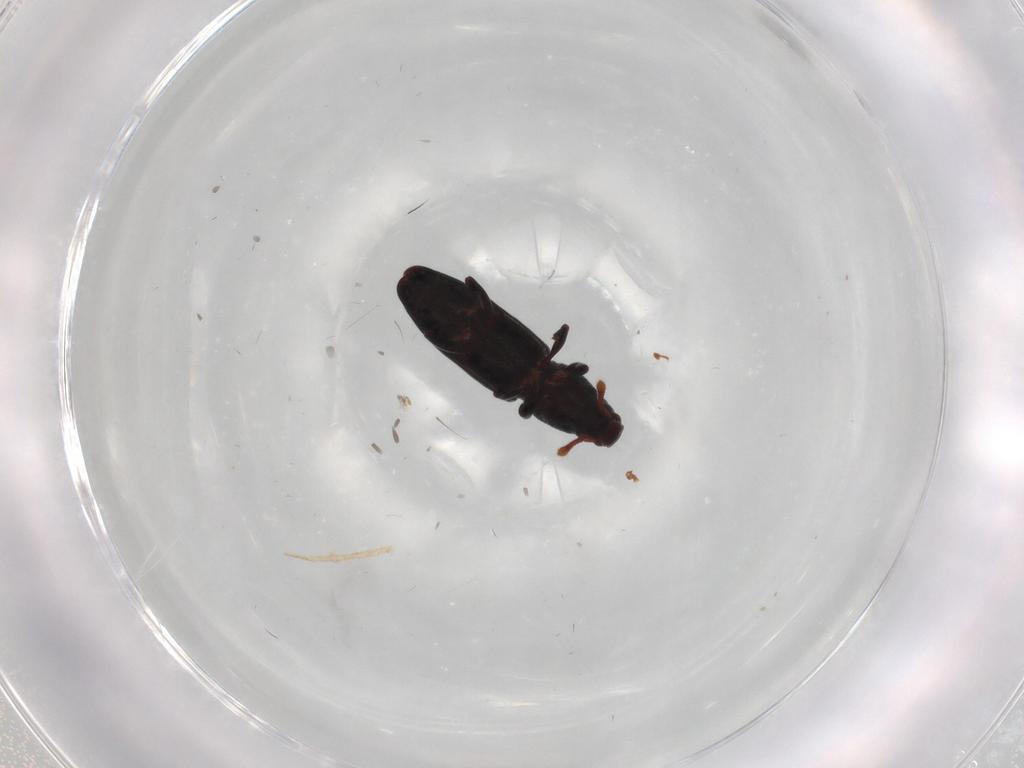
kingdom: Animalia
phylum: Arthropoda
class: Insecta
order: Coleoptera
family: Curculionidae
